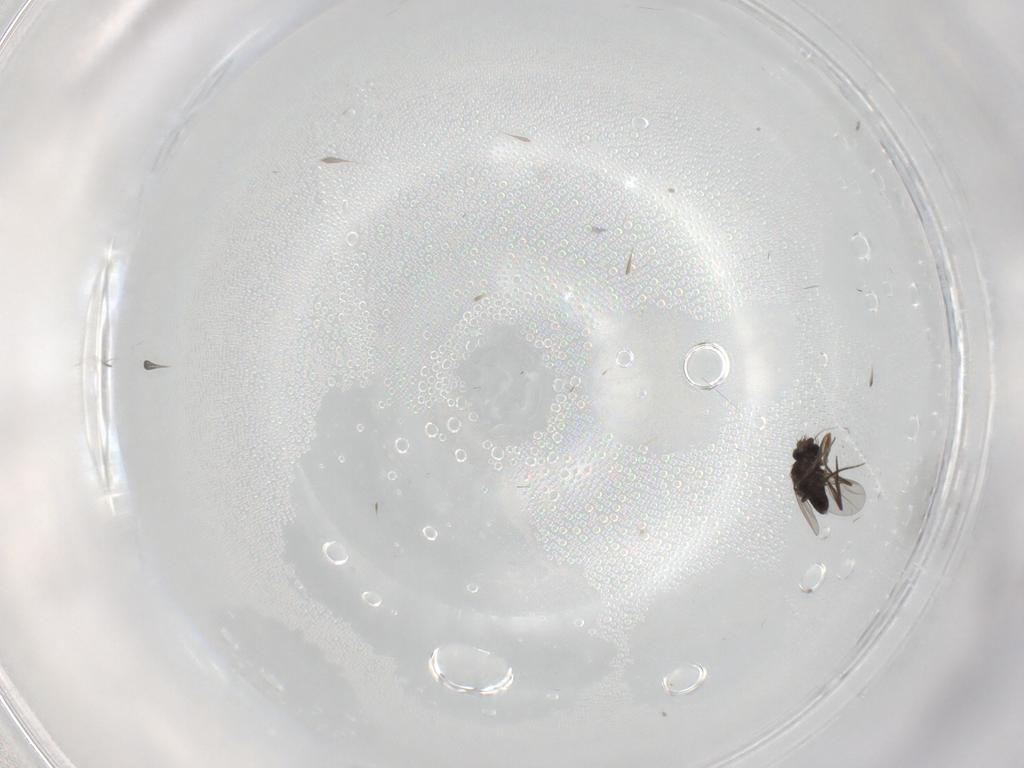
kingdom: Animalia
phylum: Arthropoda
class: Insecta
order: Diptera
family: Phoridae
